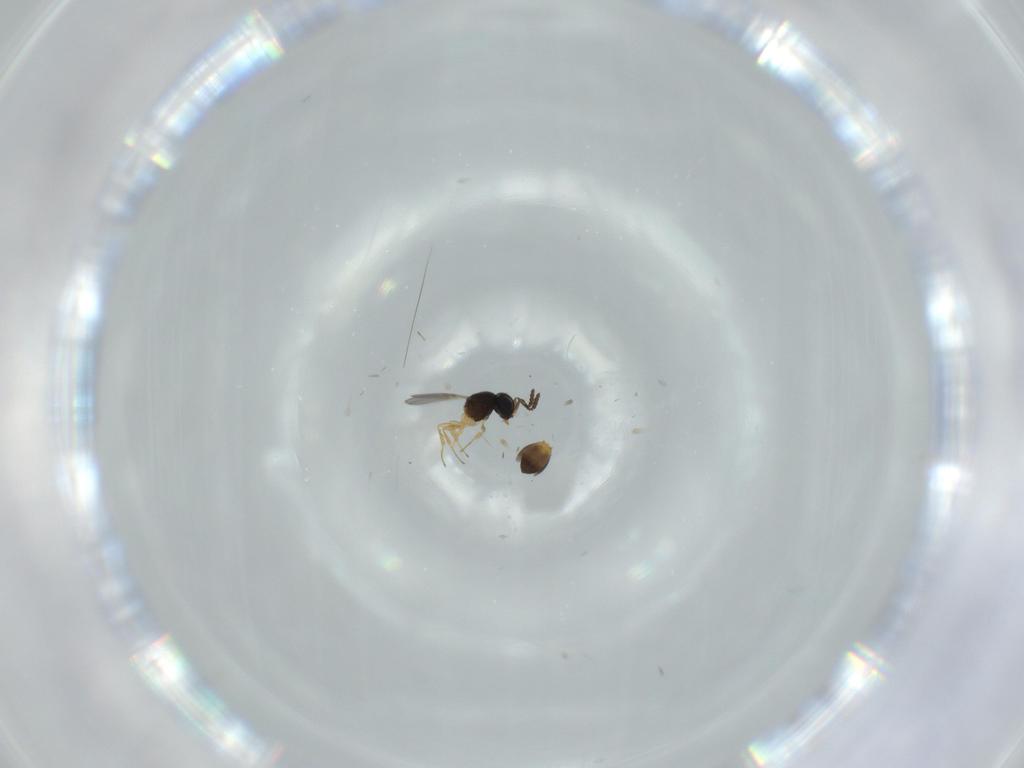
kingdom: Animalia
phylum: Arthropoda
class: Insecta
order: Hymenoptera
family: Scelionidae
